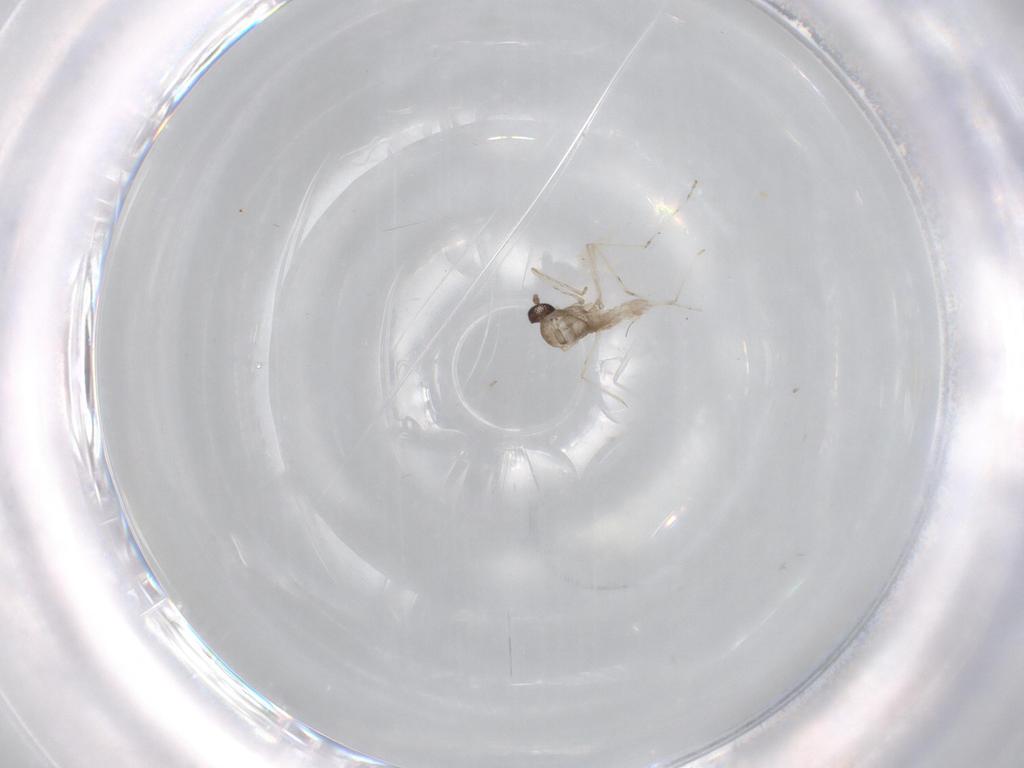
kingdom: Animalia
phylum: Arthropoda
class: Insecta
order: Diptera
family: Cecidomyiidae
